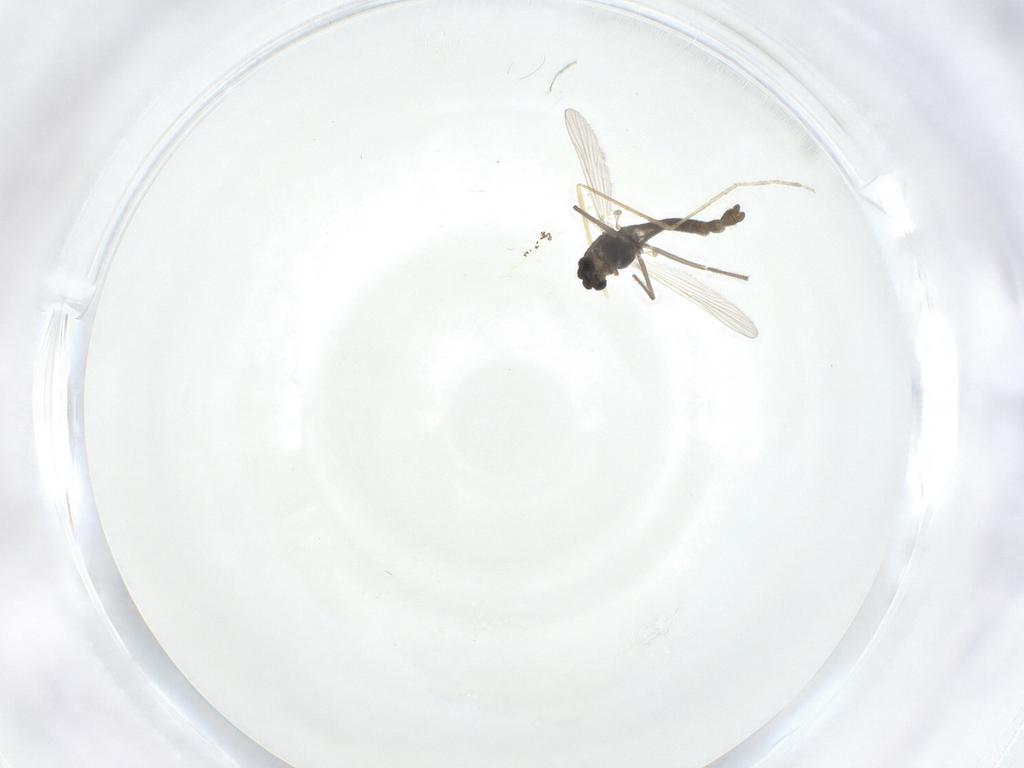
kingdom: Animalia
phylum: Arthropoda
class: Insecta
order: Diptera
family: Chironomidae
